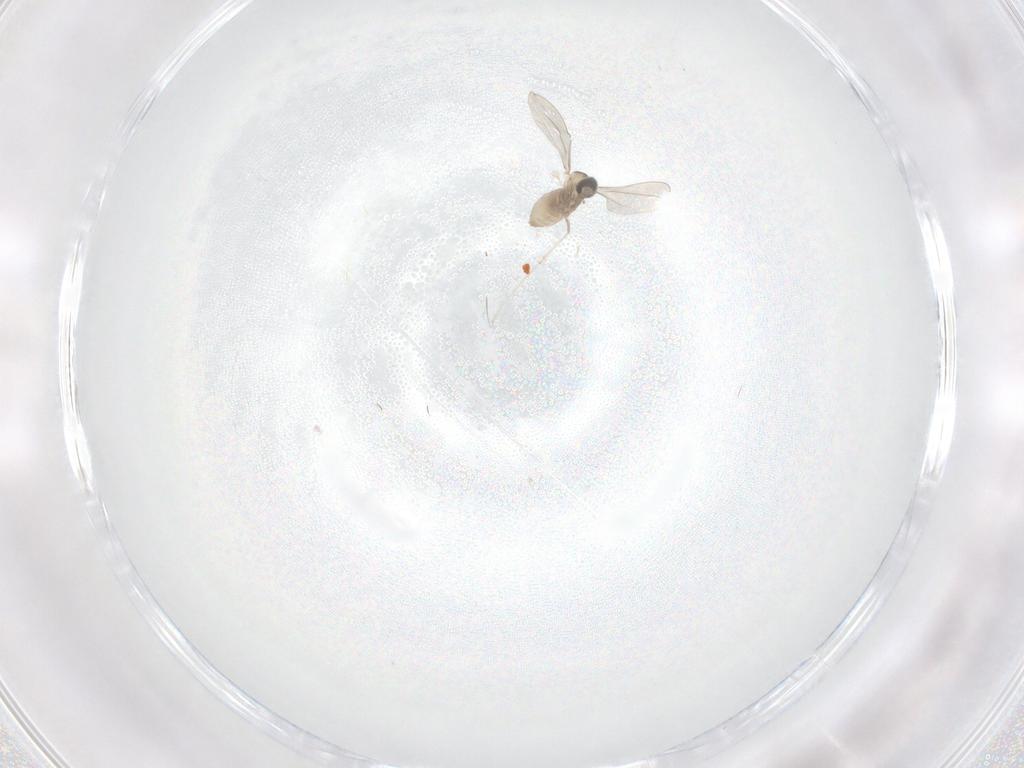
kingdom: Animalia
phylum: Arthropoda
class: Insecta
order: Diptera
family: Cecidomyiidae
